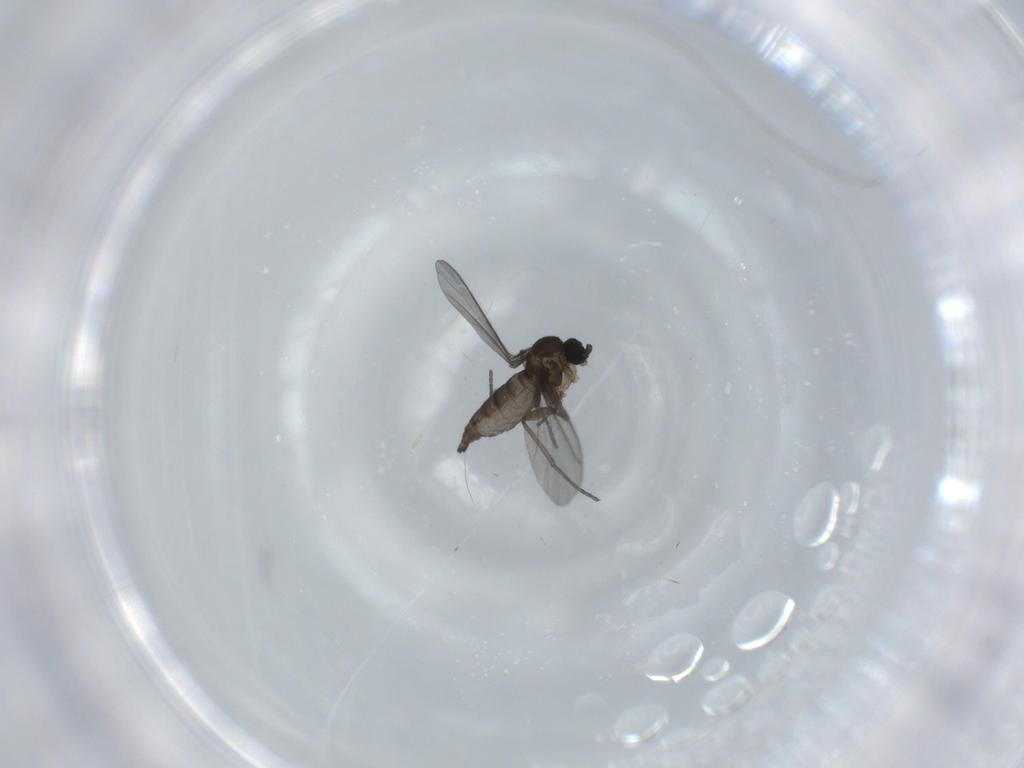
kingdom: Animalia
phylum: Arthropoda
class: Insecta
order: Diptera
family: Cecidomyiidae
